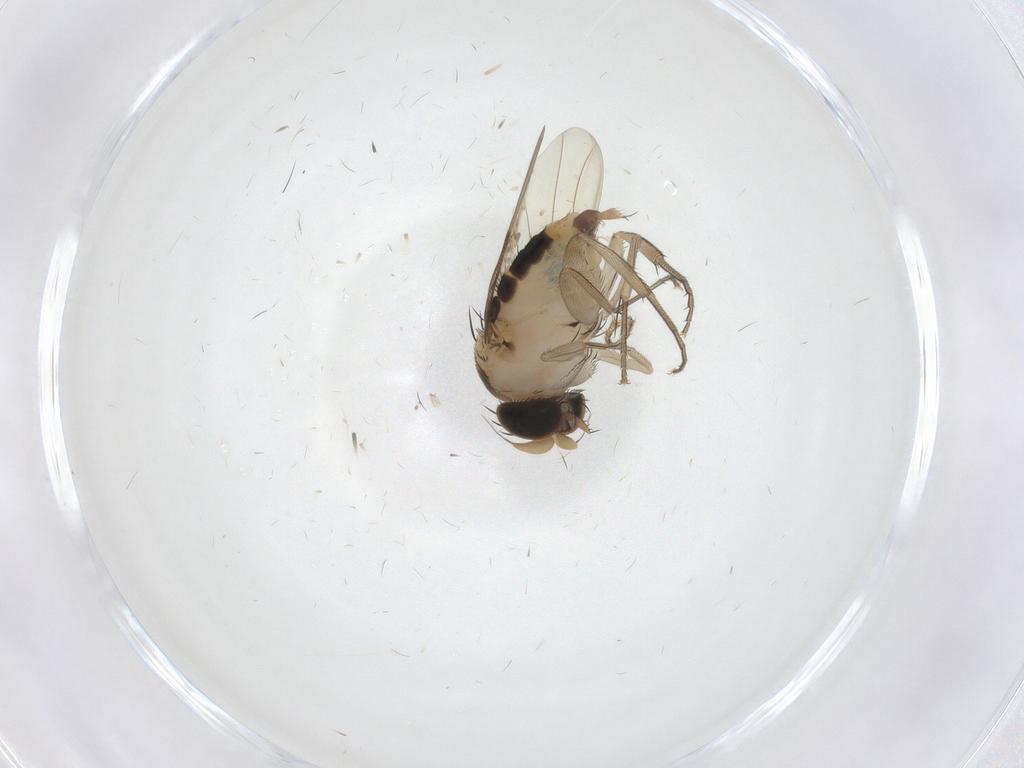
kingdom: Animalia
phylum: Arthropoda
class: Insecta
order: Diptera
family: Phoridae
